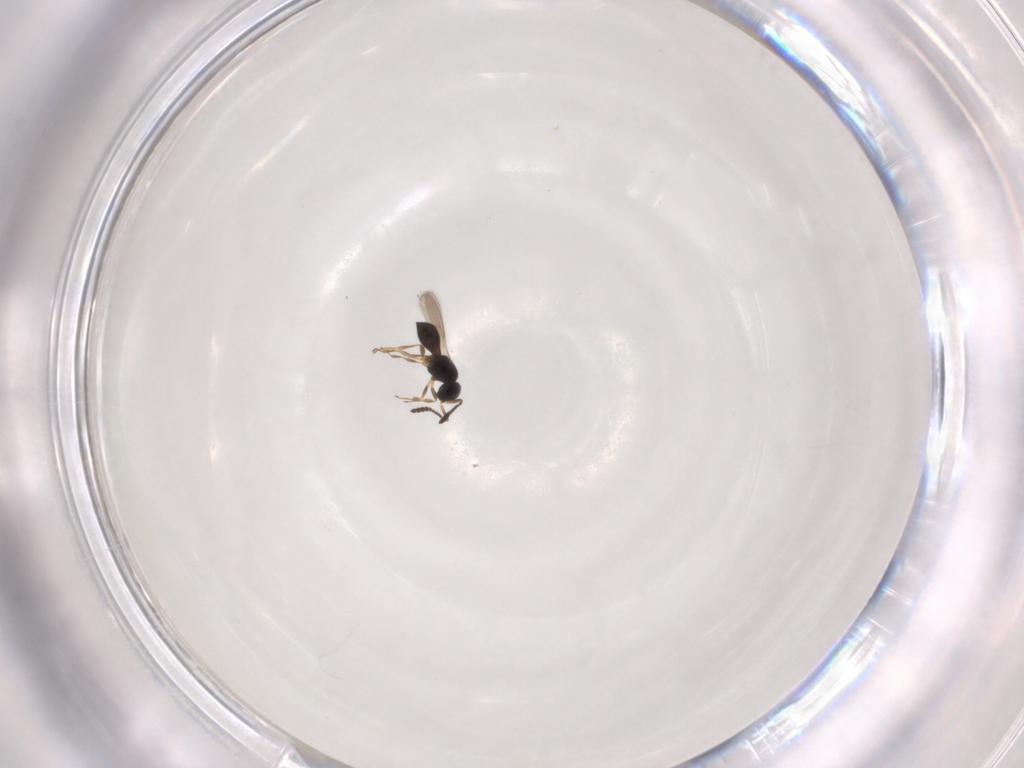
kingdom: Animalia
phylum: Arthropoda
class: Insecta
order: Hymenoptera
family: Scelionidae
